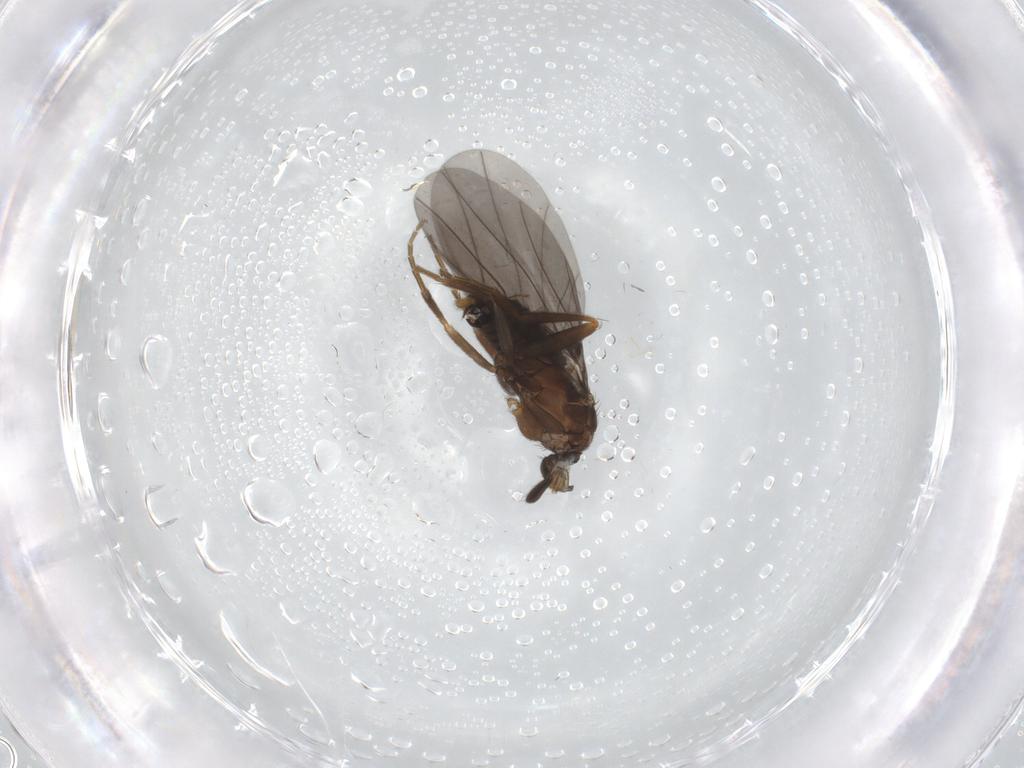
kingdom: Animalia
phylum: Arthropoda
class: Insecta
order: Diptera
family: Phoridae
